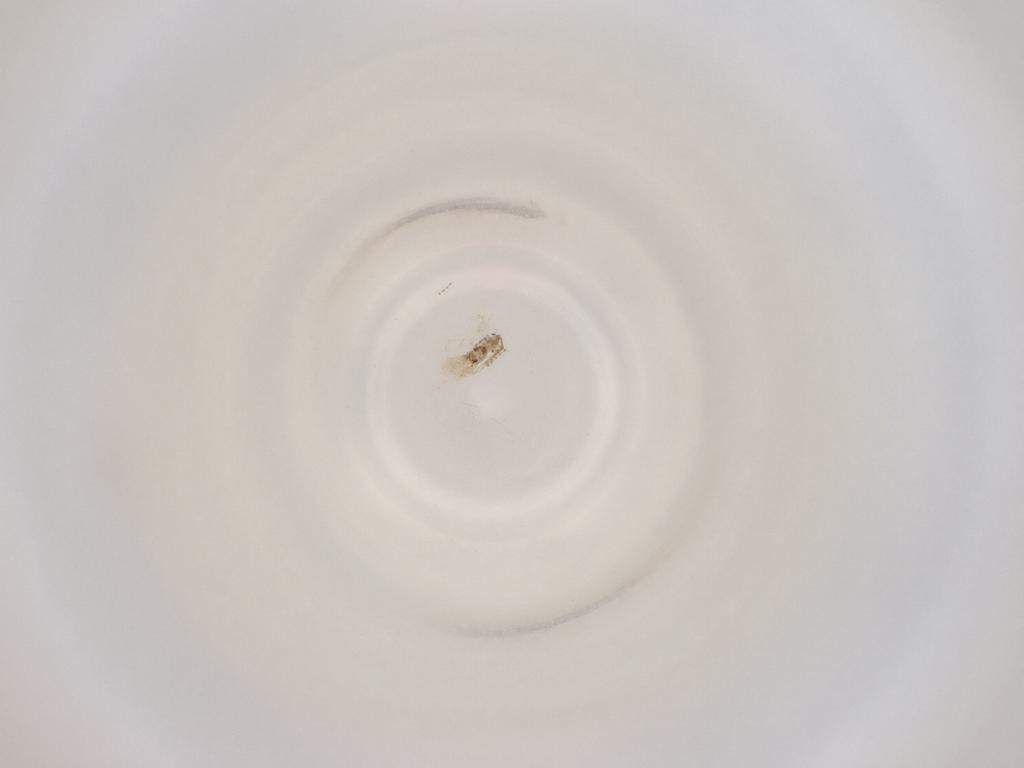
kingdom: Animalia
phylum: Arthropoda
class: Insecta
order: Diptera
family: Cecidomyiidae
